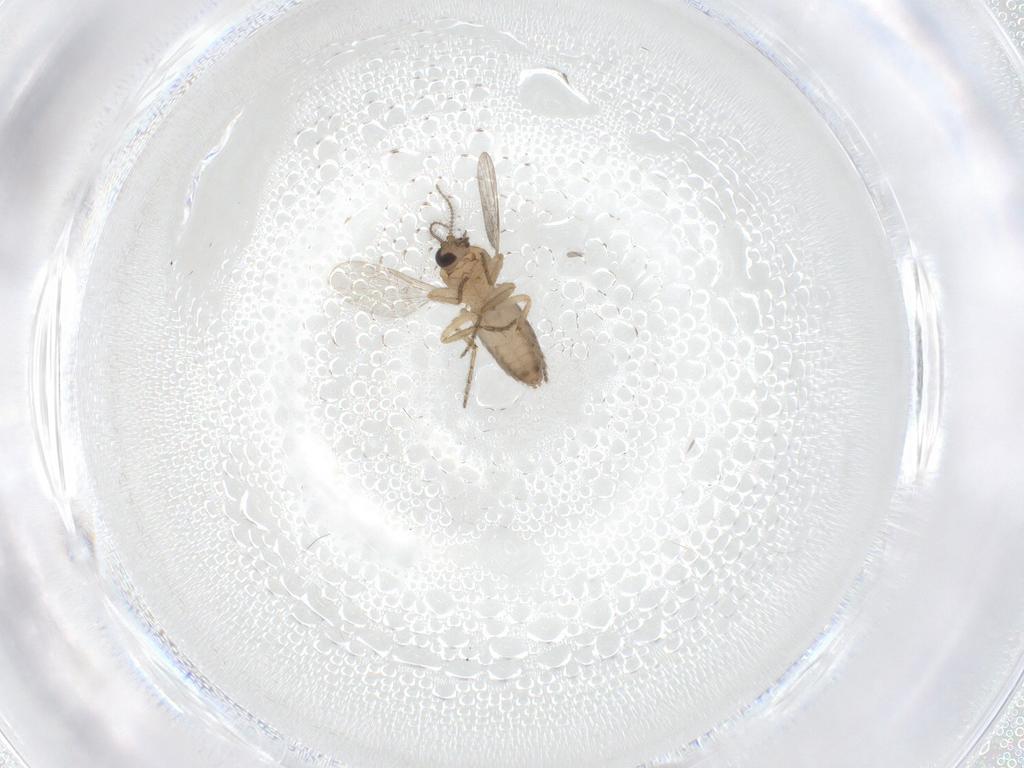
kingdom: Animalia
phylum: Arthropoda
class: Insecta
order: Diptera
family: Ceratopogonidae
